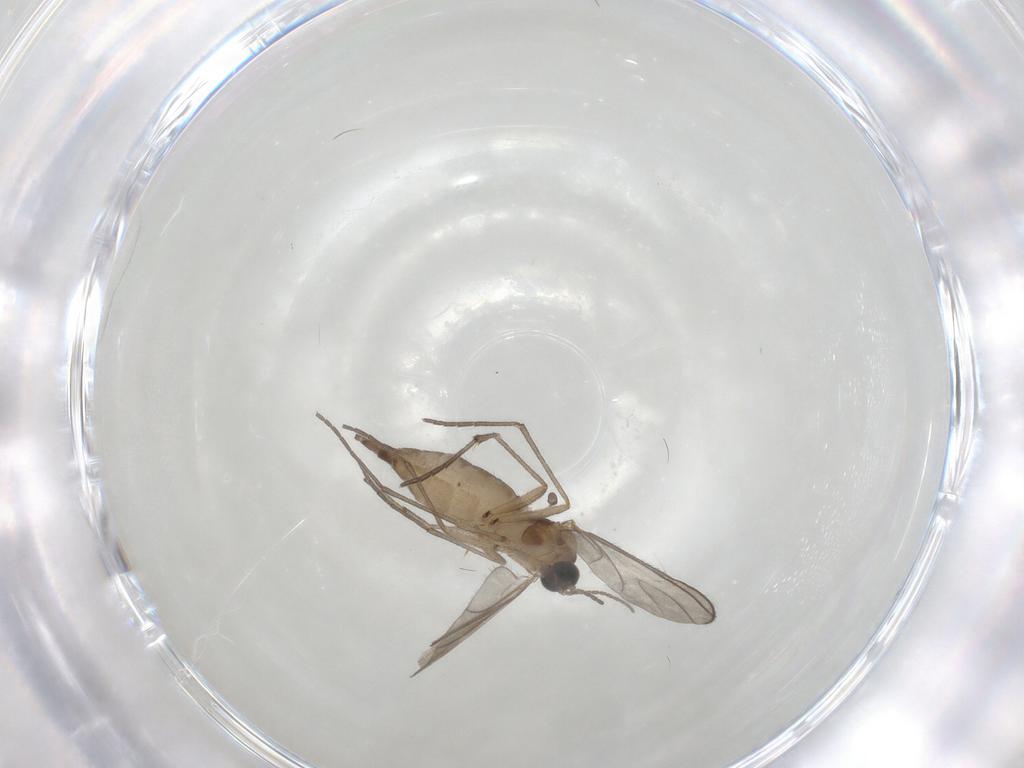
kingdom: Animalia
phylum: Arthropoda
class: Insecta
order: Diptera
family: Sciaridae
